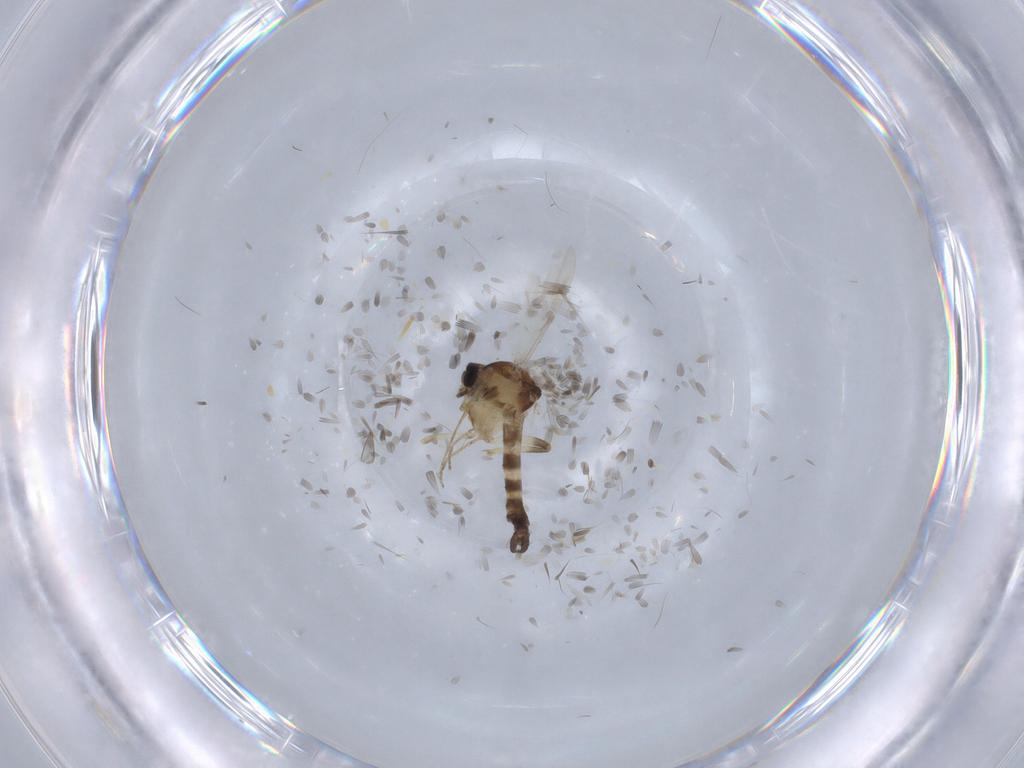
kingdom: Animalia
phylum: Arthropoda
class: Insecta
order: Diptera
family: Ceratopogonidae
